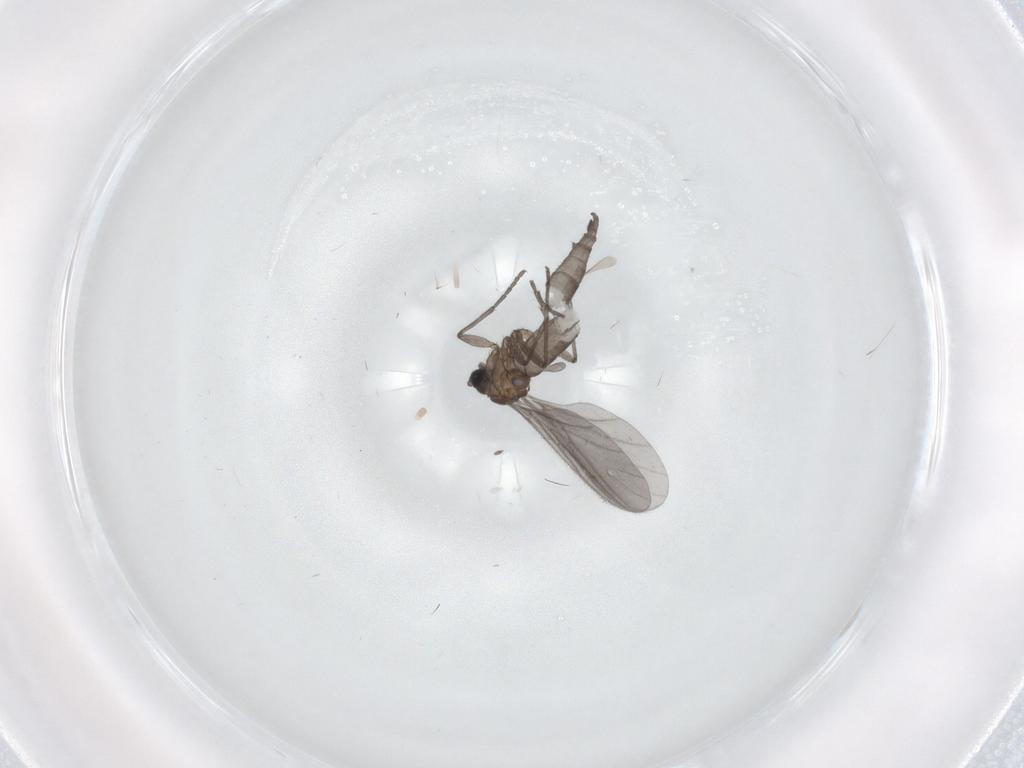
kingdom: Animalia
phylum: Arthropoda
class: Insecta
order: Diptera
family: Sciaridae
